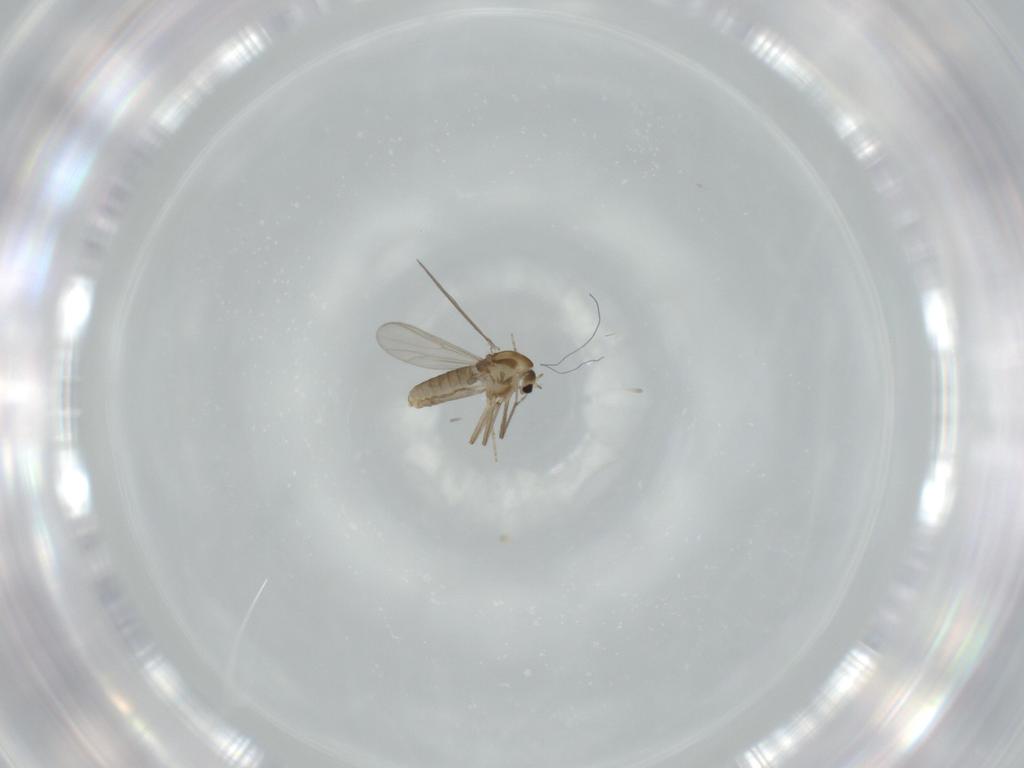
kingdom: Animalia
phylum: Arthropoda
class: Insecta
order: Diptera
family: Chironomidae
